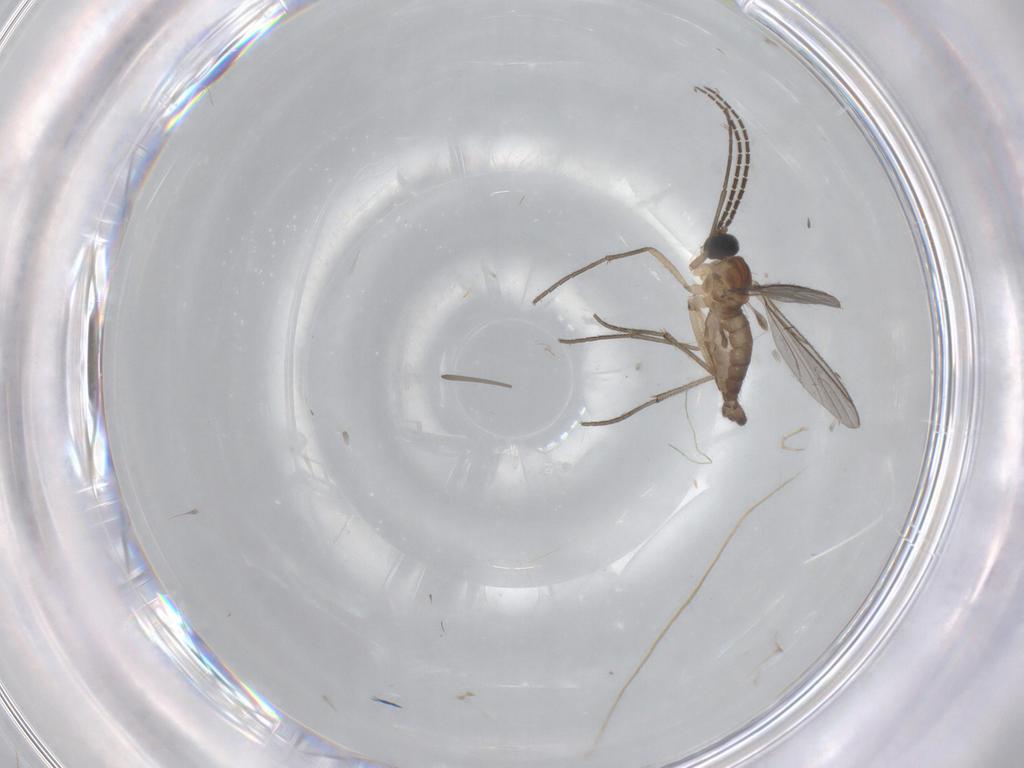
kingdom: Animalia
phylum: Arthropoda
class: Insecta
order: Diptera
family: Sciaridae
